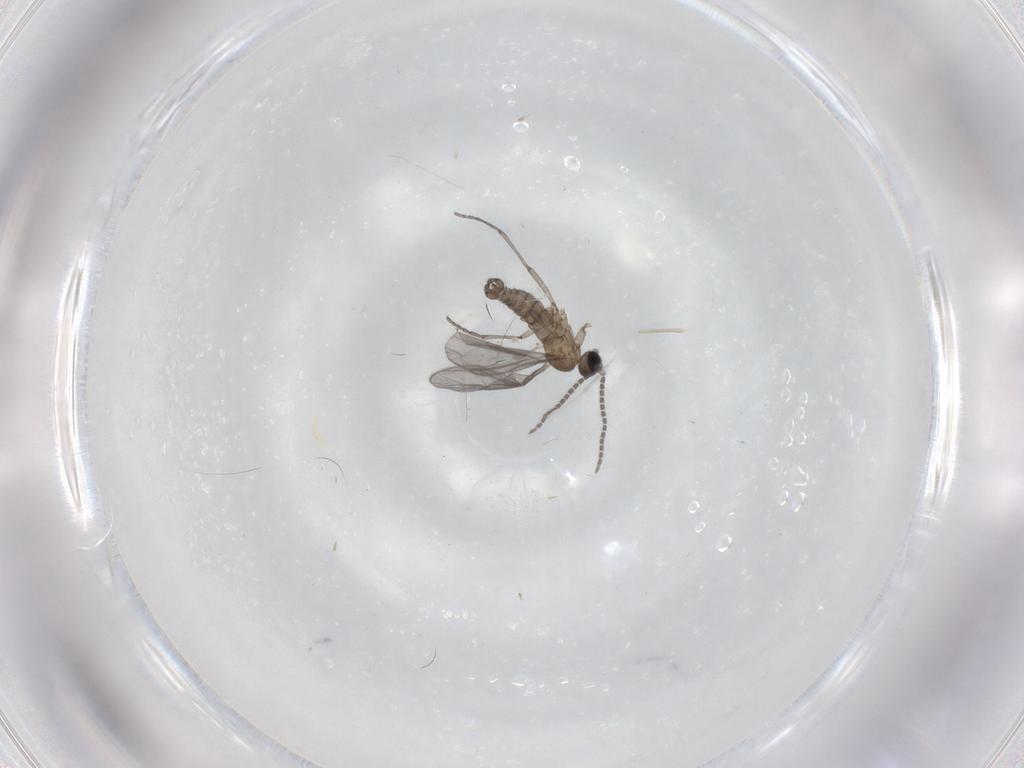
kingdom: Animalia
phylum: Arthropoda
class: Insecta
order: Diptera
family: Sciaridae
